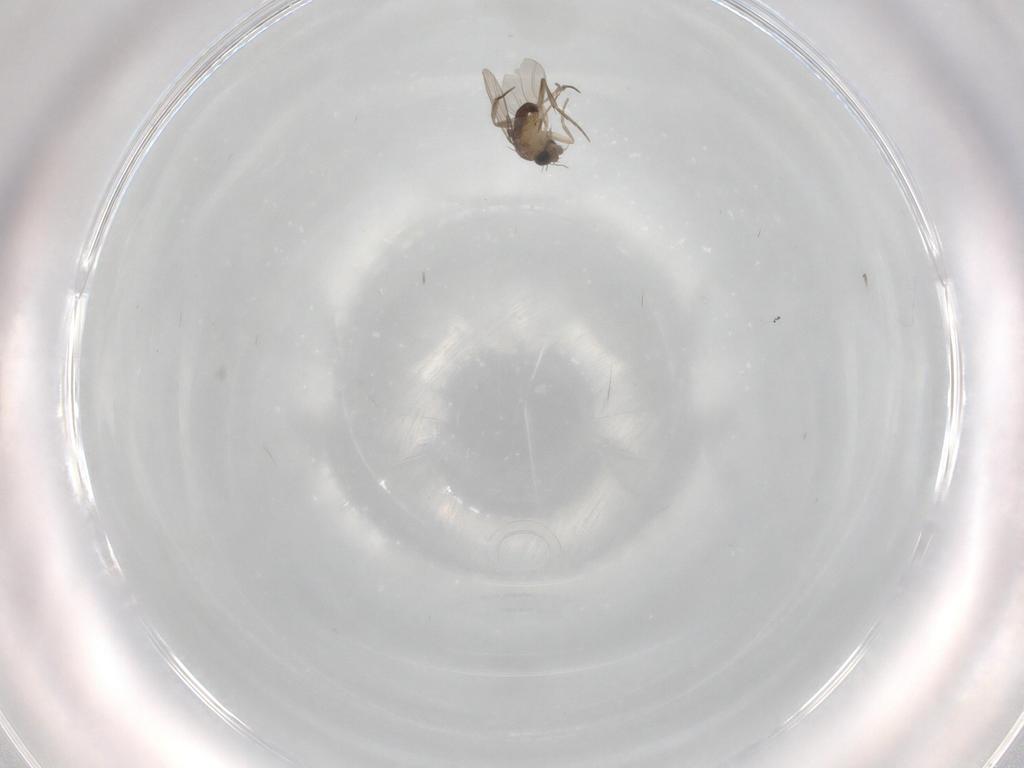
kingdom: Animalia
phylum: Arthropoda
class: Insecta
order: Diptera
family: Phoridae
